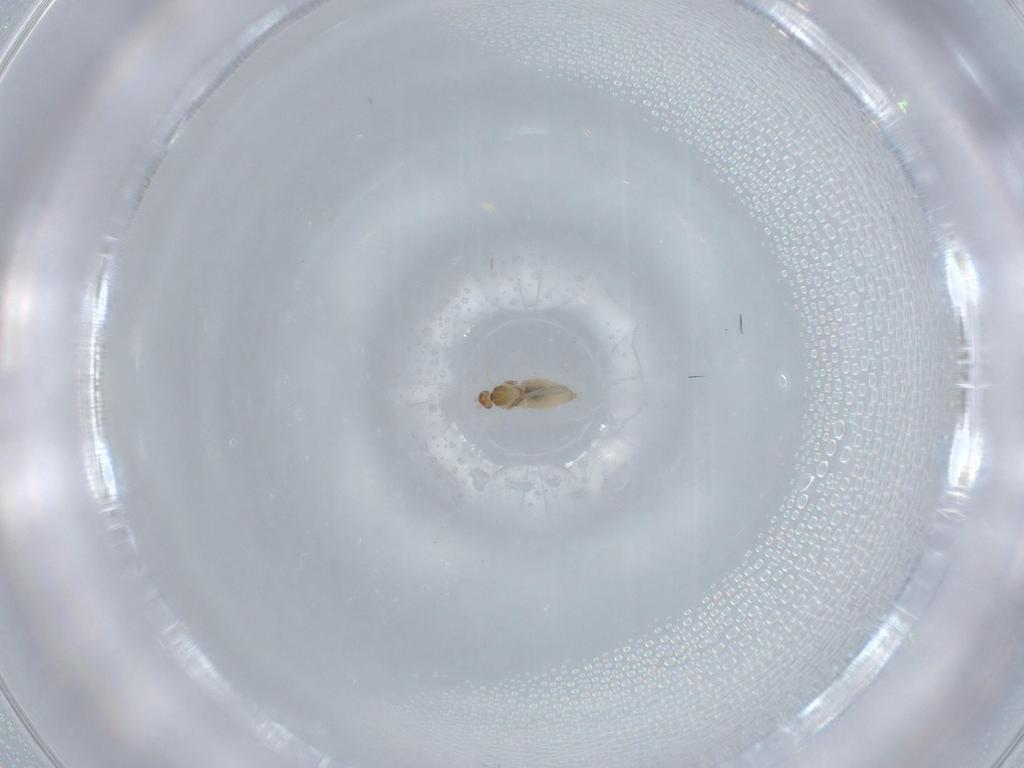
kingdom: Animalia
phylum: Arthropoda
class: Insecta
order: Diptera
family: Cecidomyiidae
